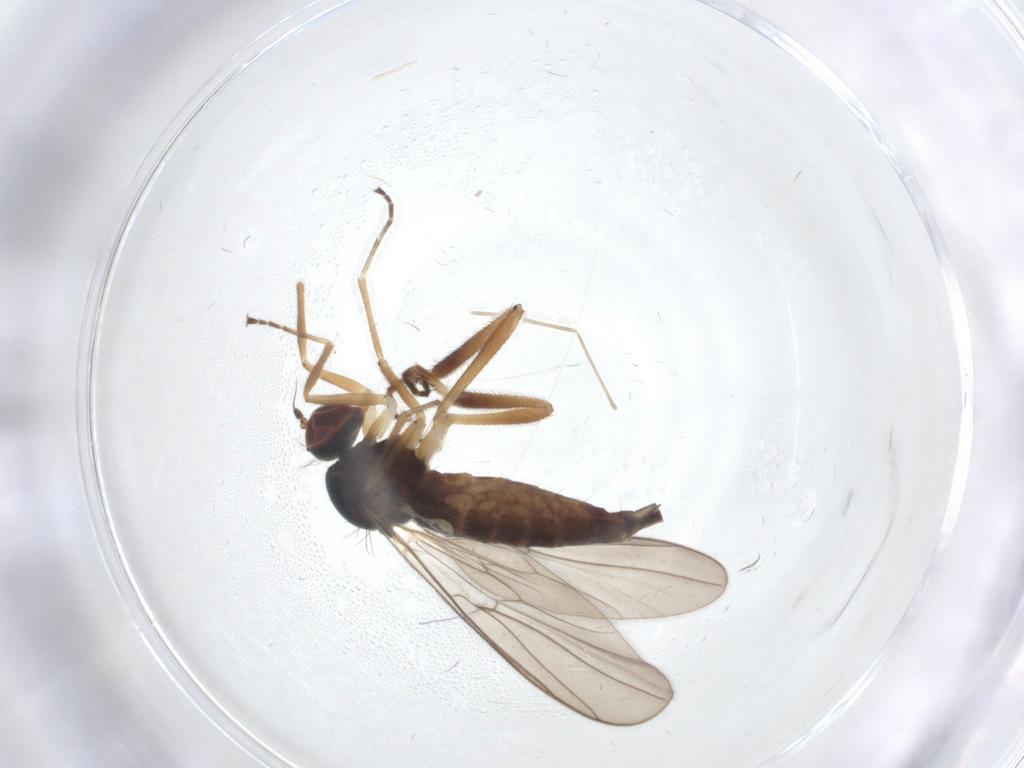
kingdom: Animalia
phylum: Arthropoda
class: Insecta
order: Diptera
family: Hybotidae
